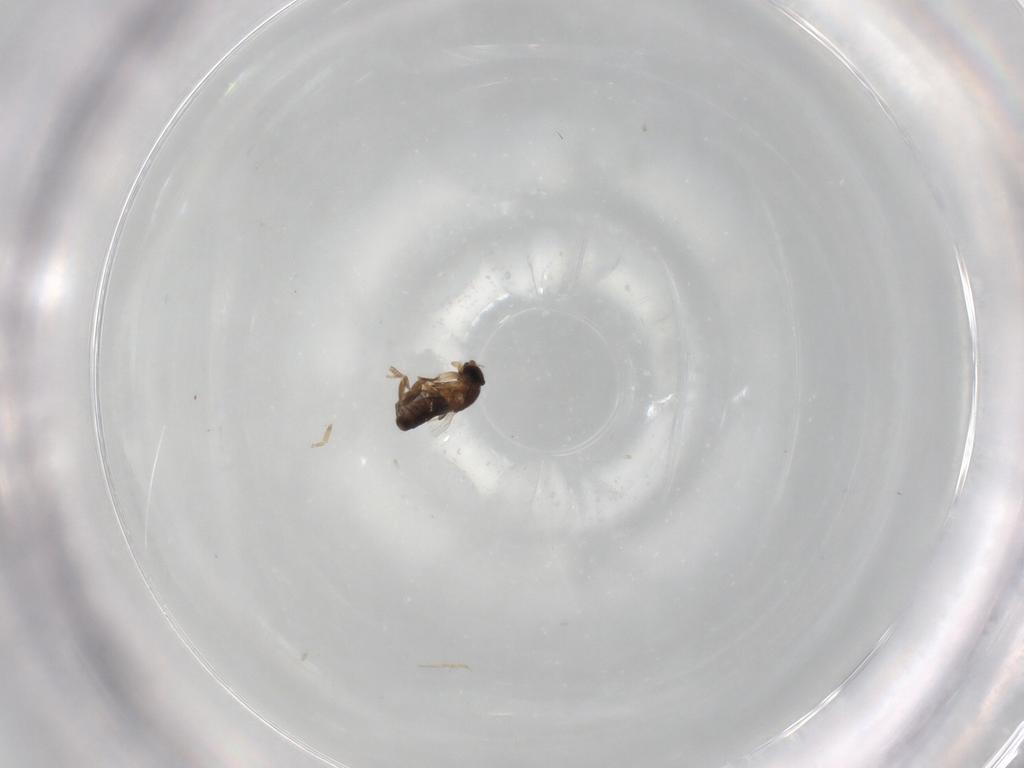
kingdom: Animalia
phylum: Arthropoda
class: Insecta
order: Diptera
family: Phoridae
